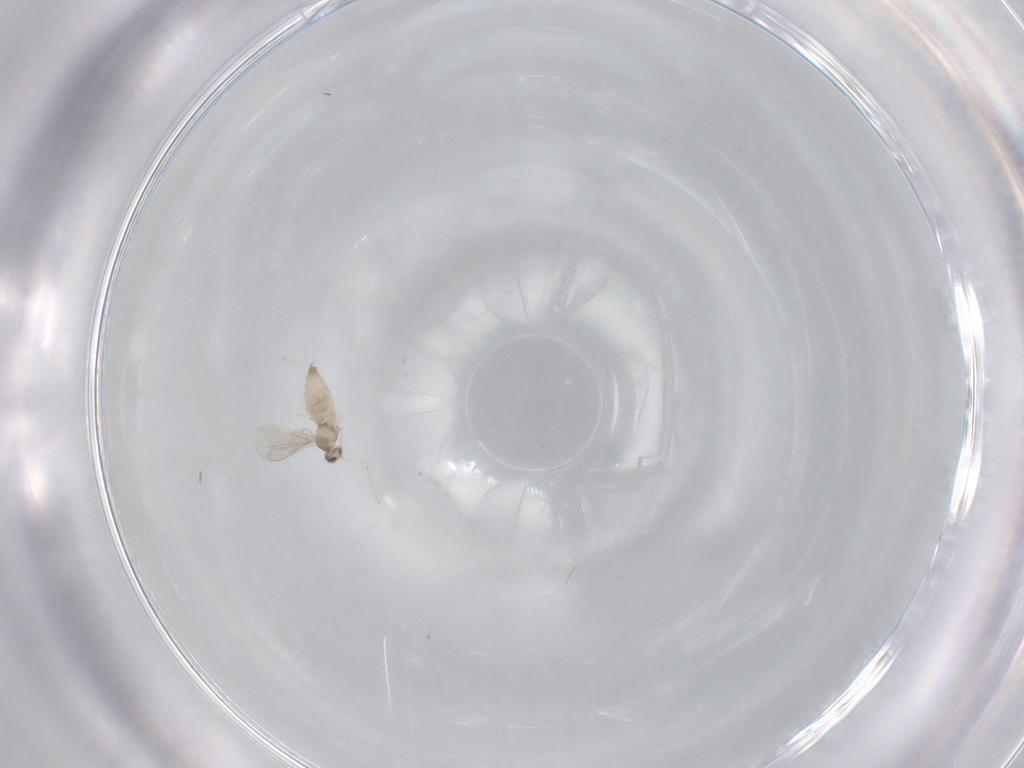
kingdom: Animalia
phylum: Arthropoda
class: Insecta
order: Diptera
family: Cecidomyiidae
